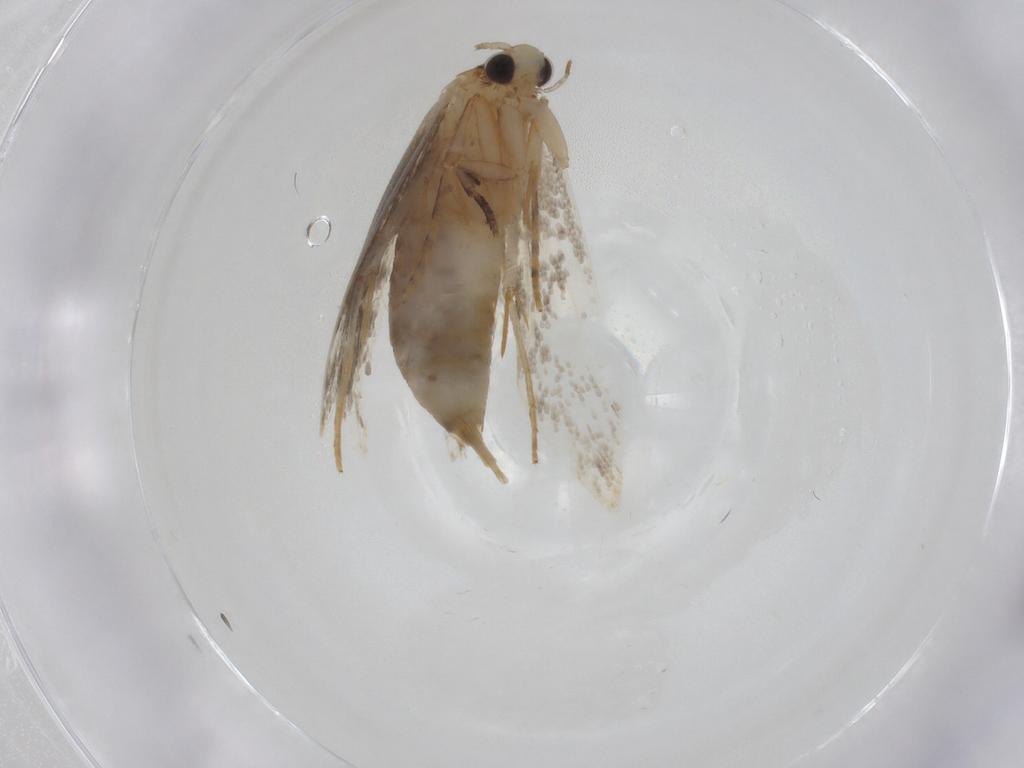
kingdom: Animalia
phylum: Arthropoda
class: Insecta
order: Lepidoptera
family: Tineidae
